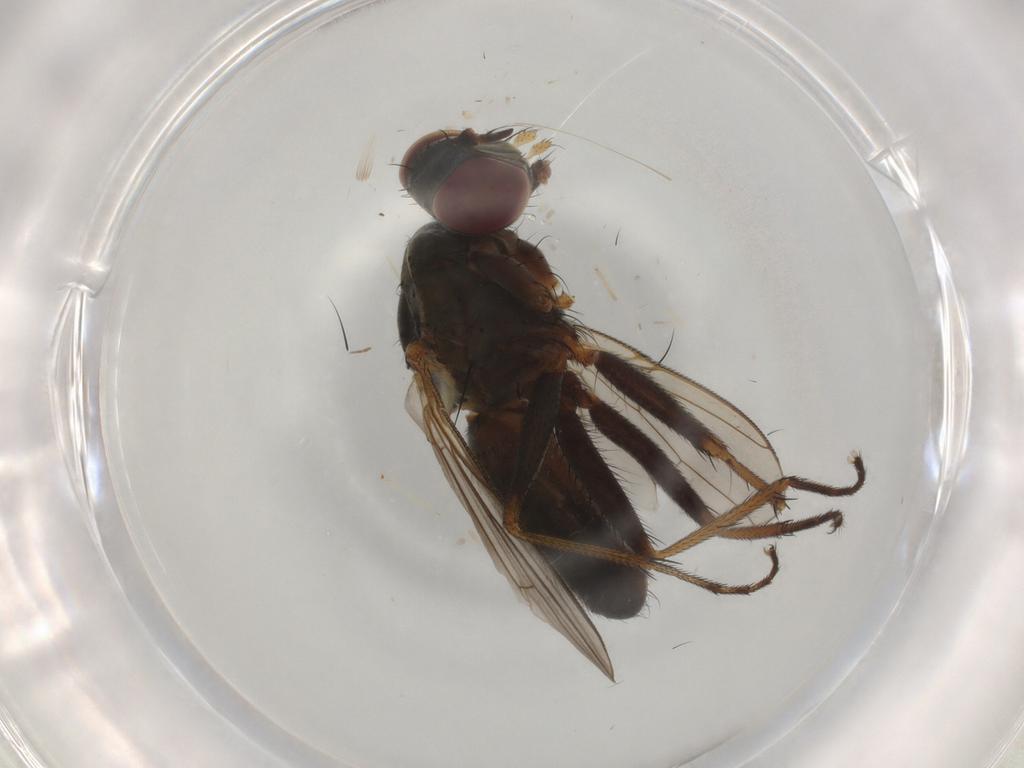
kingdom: Animalia
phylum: Arthropoda
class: Insecta
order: Diptera
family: Muscidae
